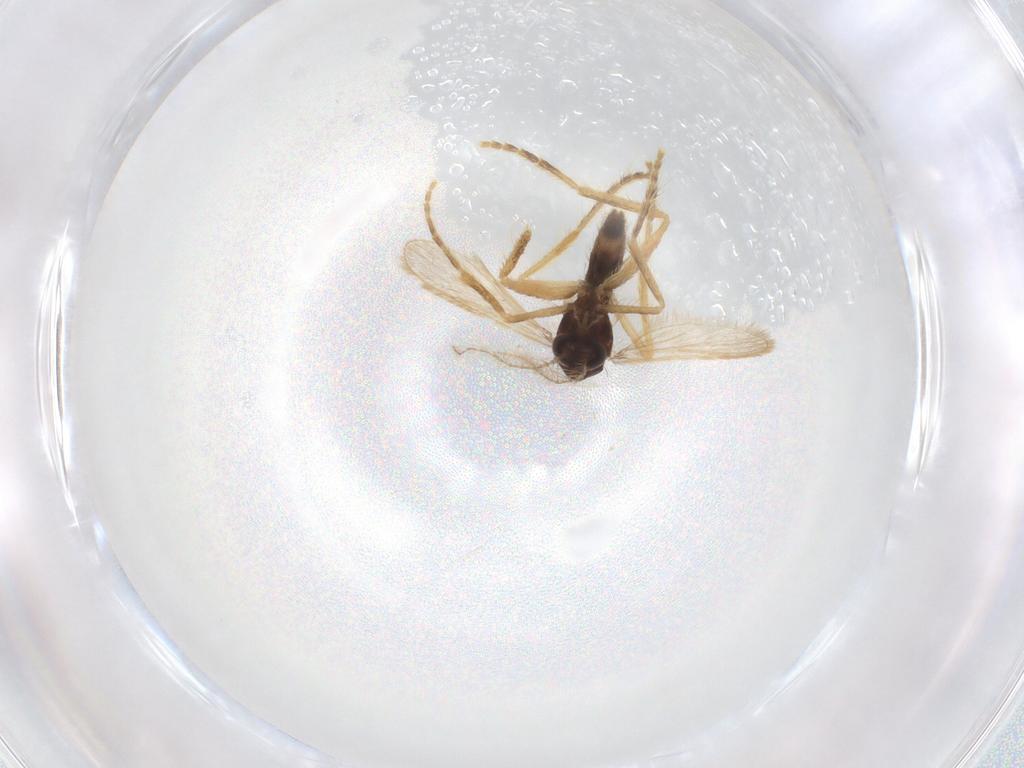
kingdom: Animalia
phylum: Arthropoda
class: Insecta
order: Diptera
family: Corethrellidae
